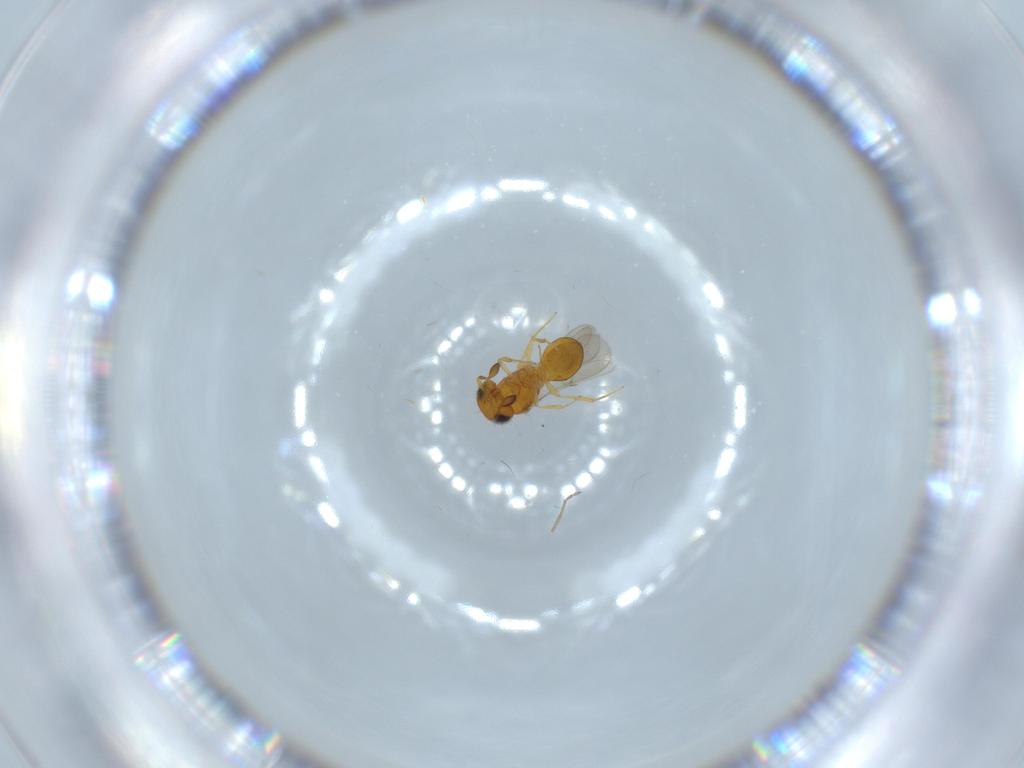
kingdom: Animalia
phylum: Arthropoda
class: Insecta
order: Hymenoptera
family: Scelionidae
